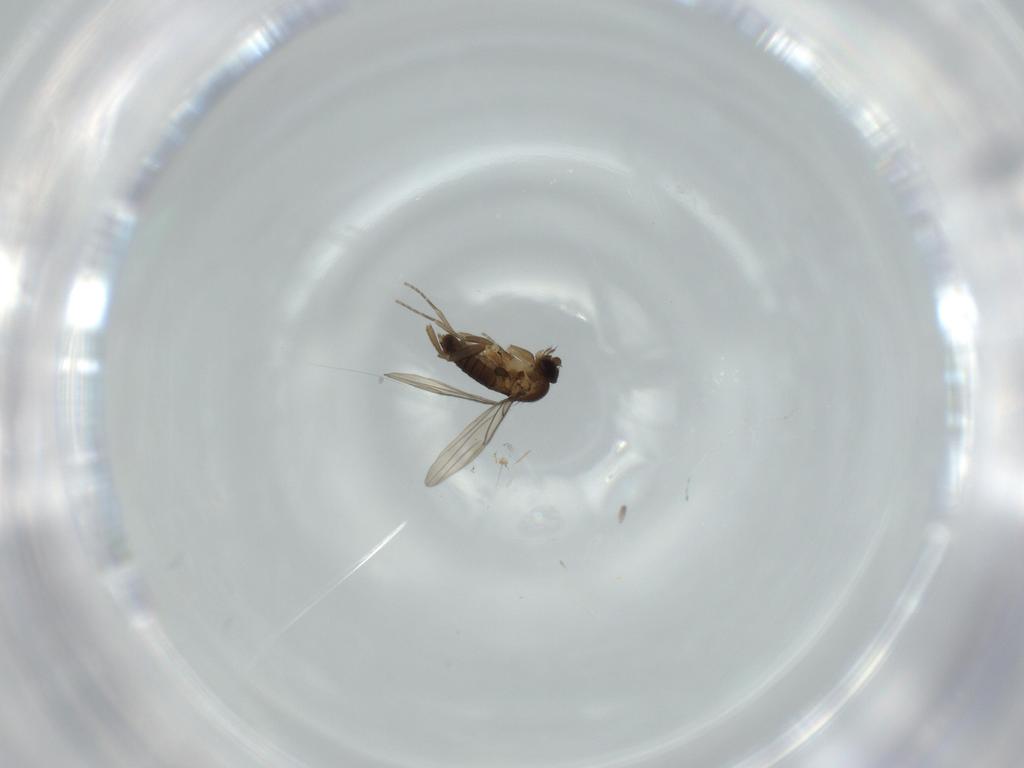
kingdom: Animalia
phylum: Arthropoda
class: Insecta
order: Diptera
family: Phoridae
